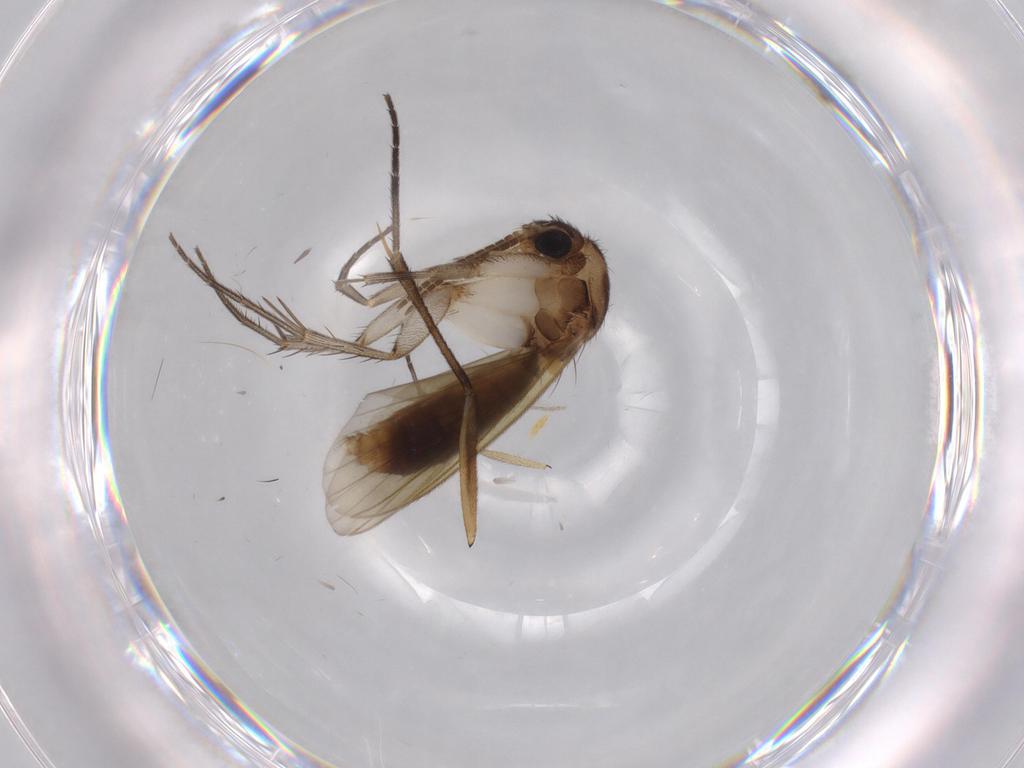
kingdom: Animalia
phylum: Arthropoda
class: Insecta
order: Diptera
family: Phoridae
